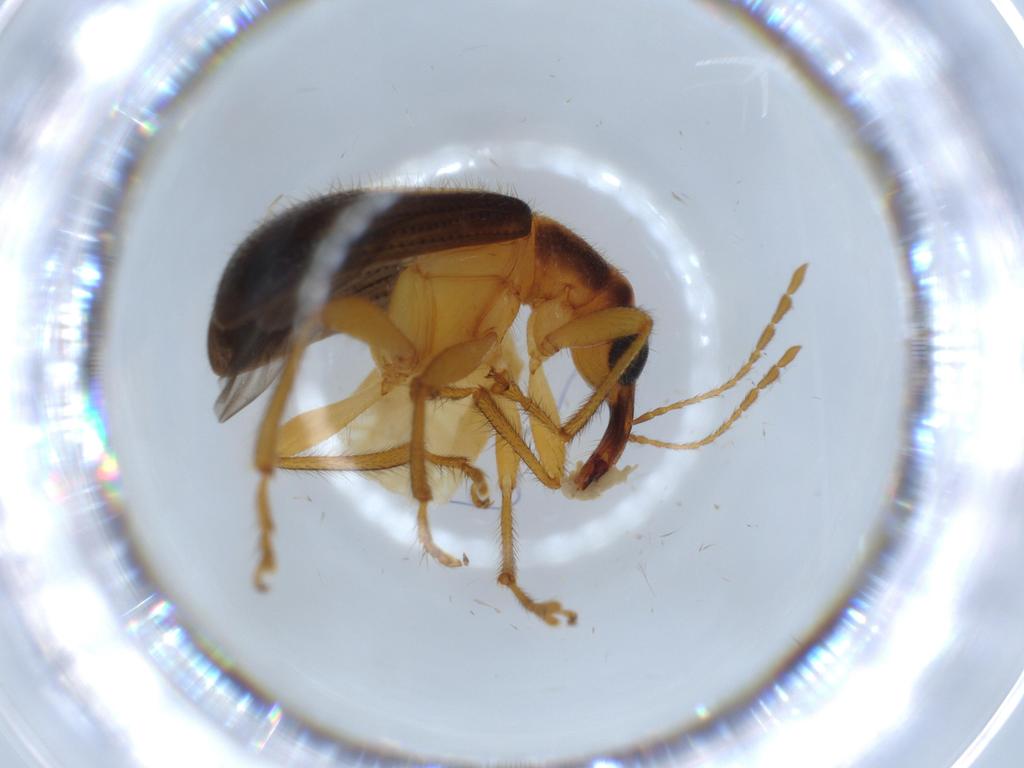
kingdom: Animalia
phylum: Arthropoda
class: Insecta
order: Coleoptera
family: Attelabidae
